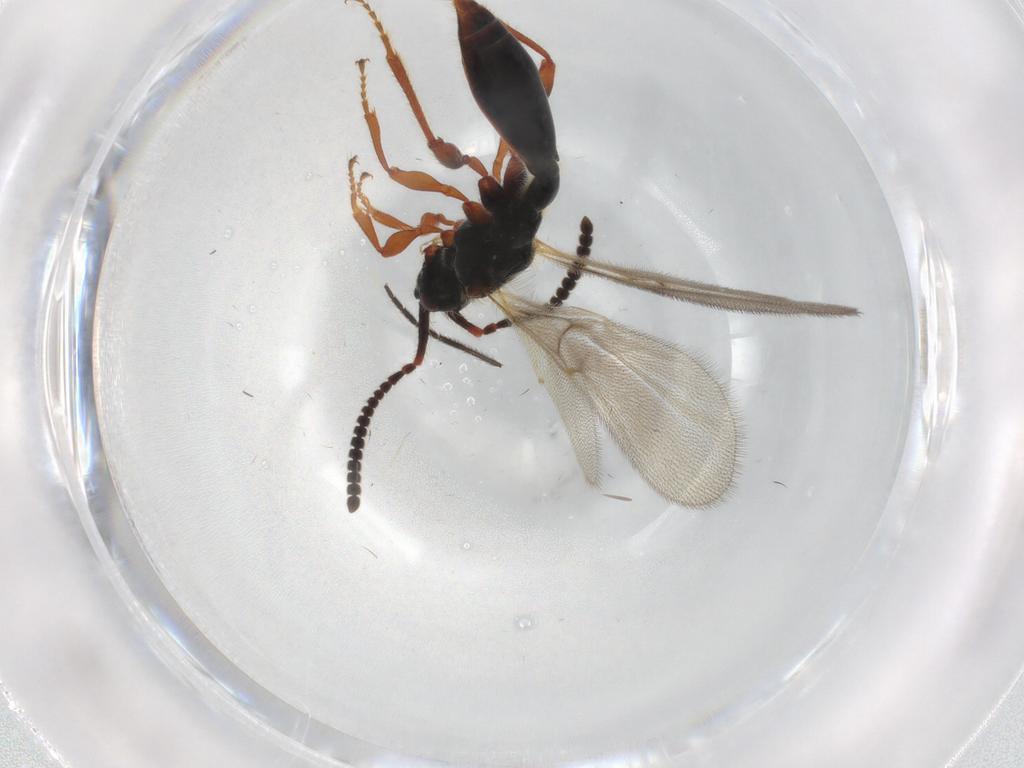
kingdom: Animalia
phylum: Arthropoda
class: Insecta
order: Hymenoptera
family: Diapriidae
